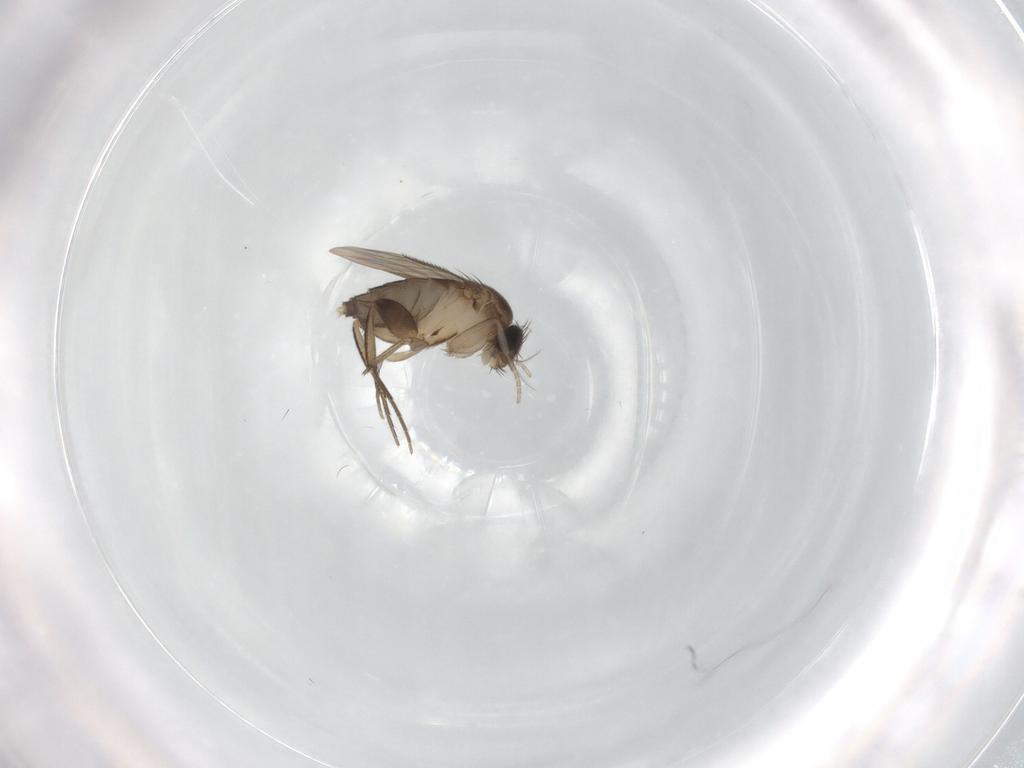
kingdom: Animalia
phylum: Arthropoda
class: Insecta
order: Diptera
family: Phoridae
